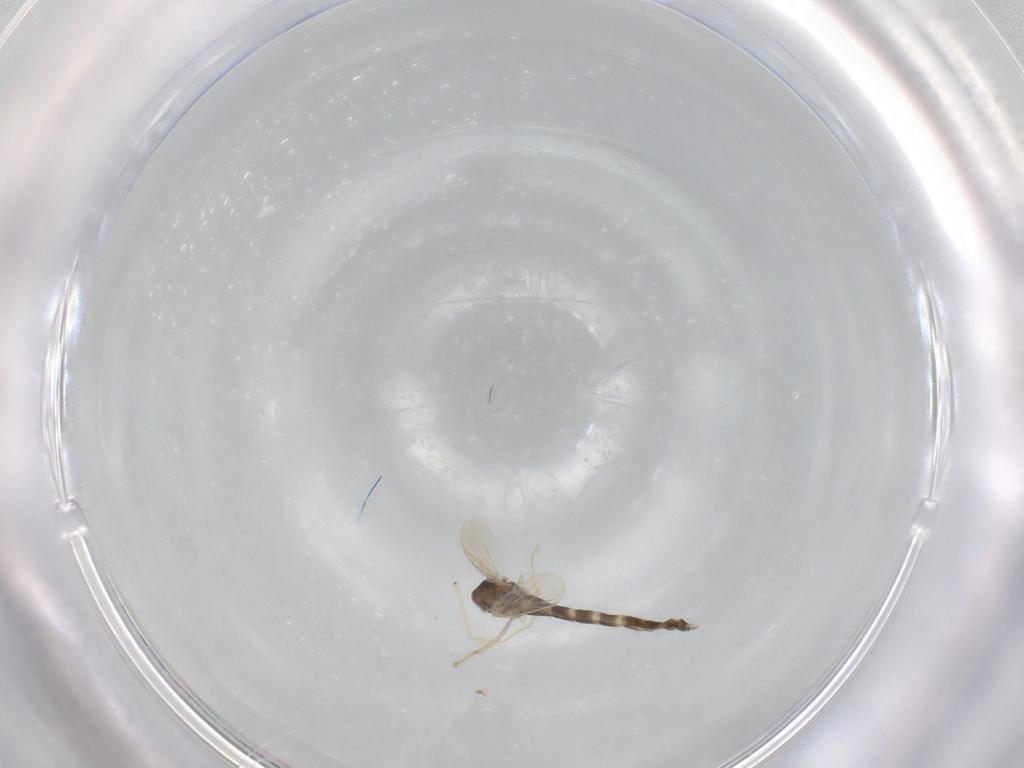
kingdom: Animalia
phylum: Arthropoda
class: Insecta
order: Diptera
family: Chironomidae
